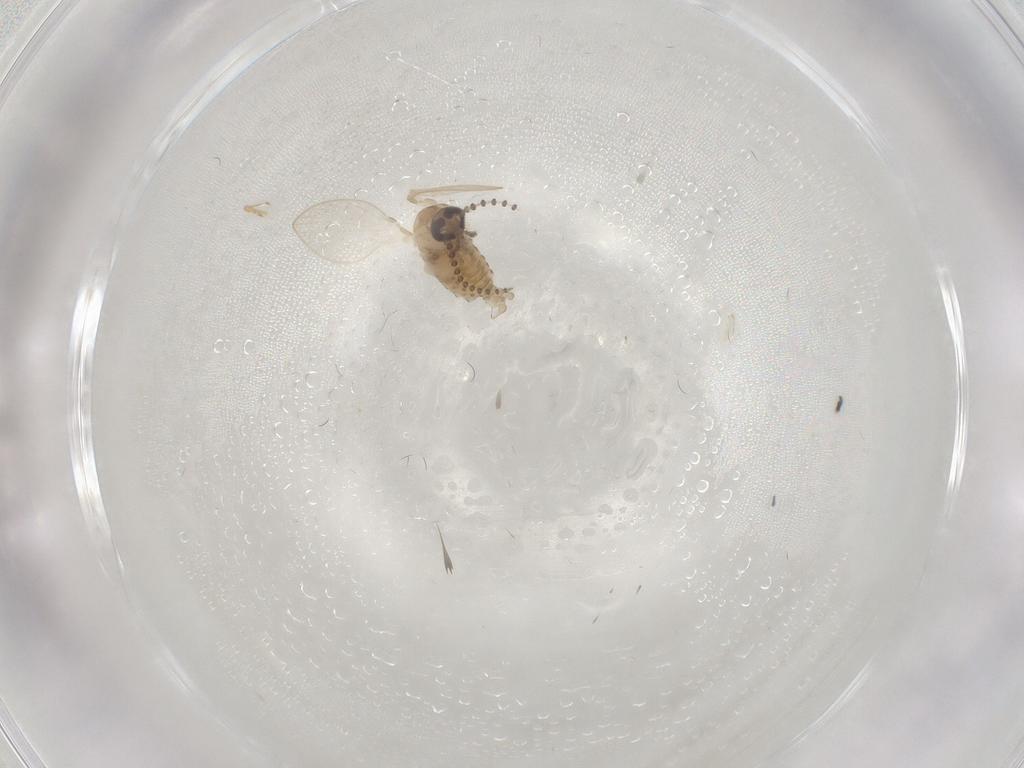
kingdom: Animalia
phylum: Arthropoda
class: Insecta
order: Diptera
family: Psychodidae
